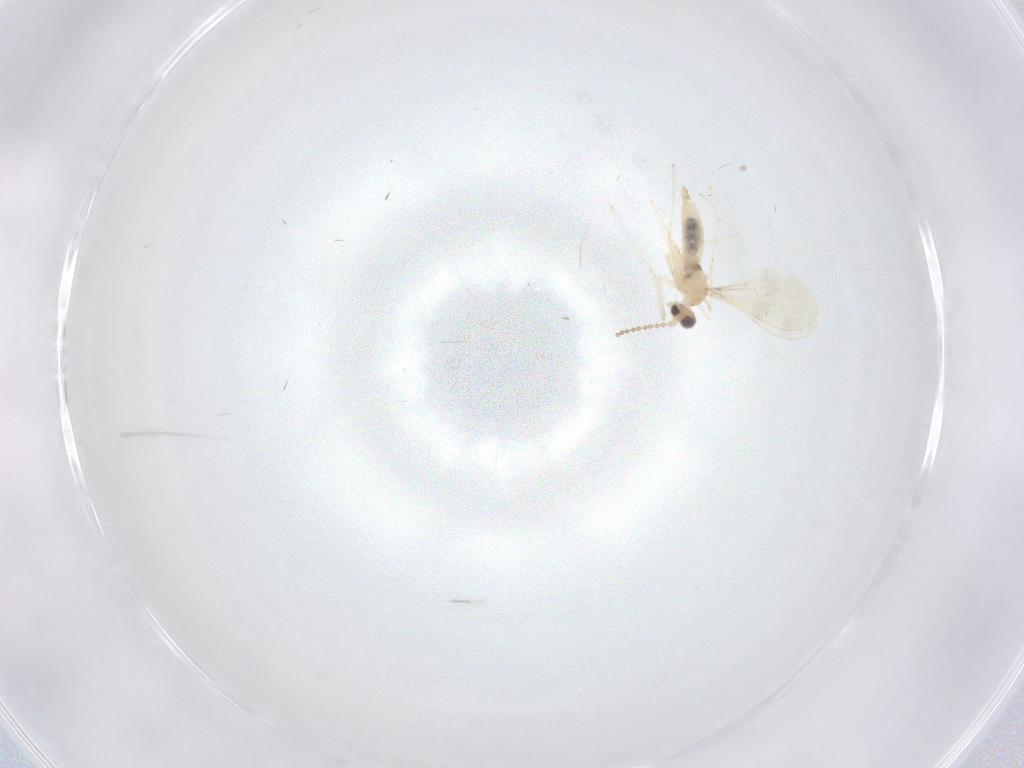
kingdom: Animalia
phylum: Arthropoda
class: Insecta
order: Diptera
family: Cecidomyiidae
